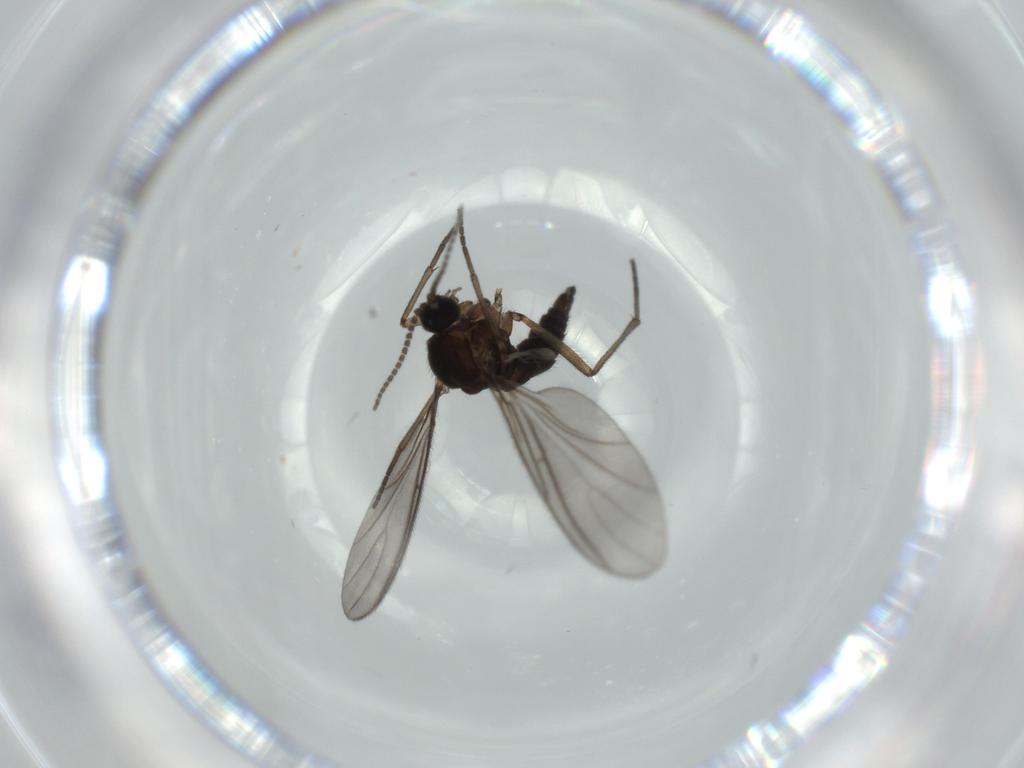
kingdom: Animalia
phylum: Arthropoda
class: Insecta
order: Diptera
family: Sciaridae
